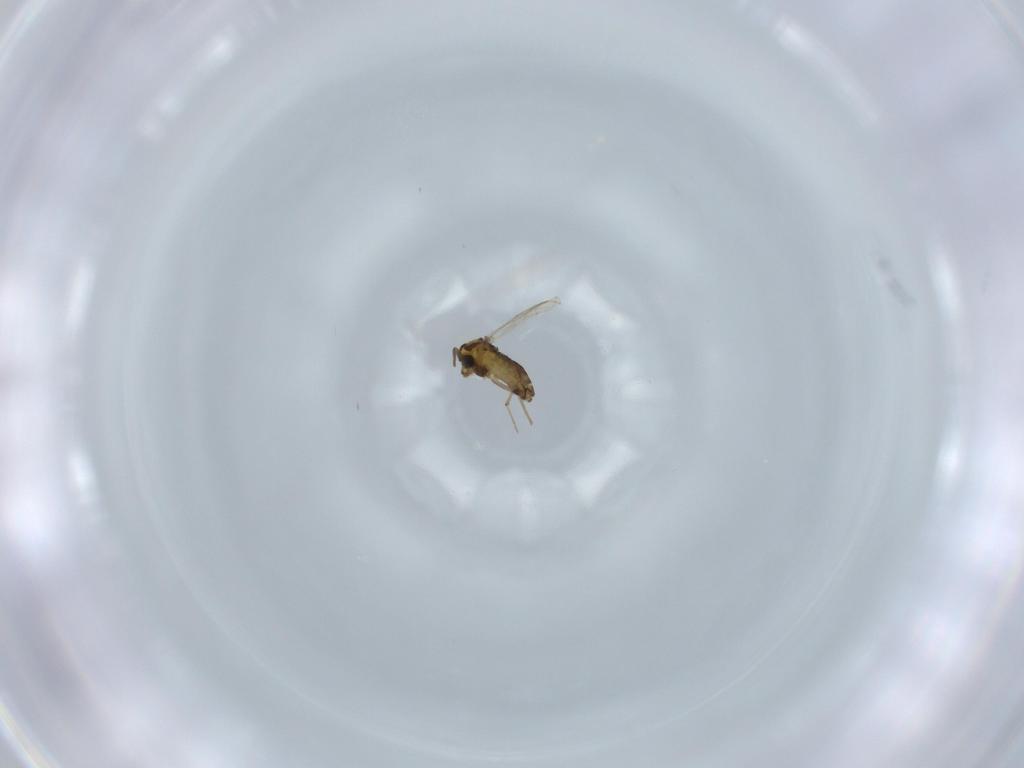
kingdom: Animalia
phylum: Arthropoda
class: Insecta
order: Diptera
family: Chironomidae
